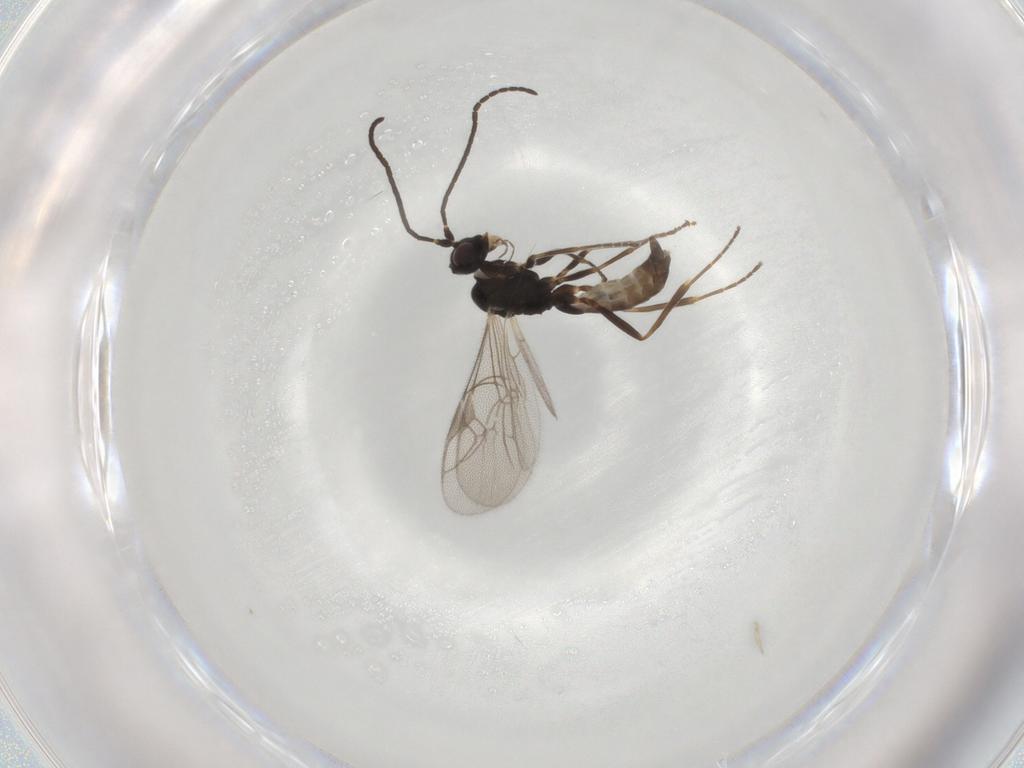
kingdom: Animalia
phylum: Arthropoda
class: Insecta
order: Hymenoptera
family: Ichneumonidae
